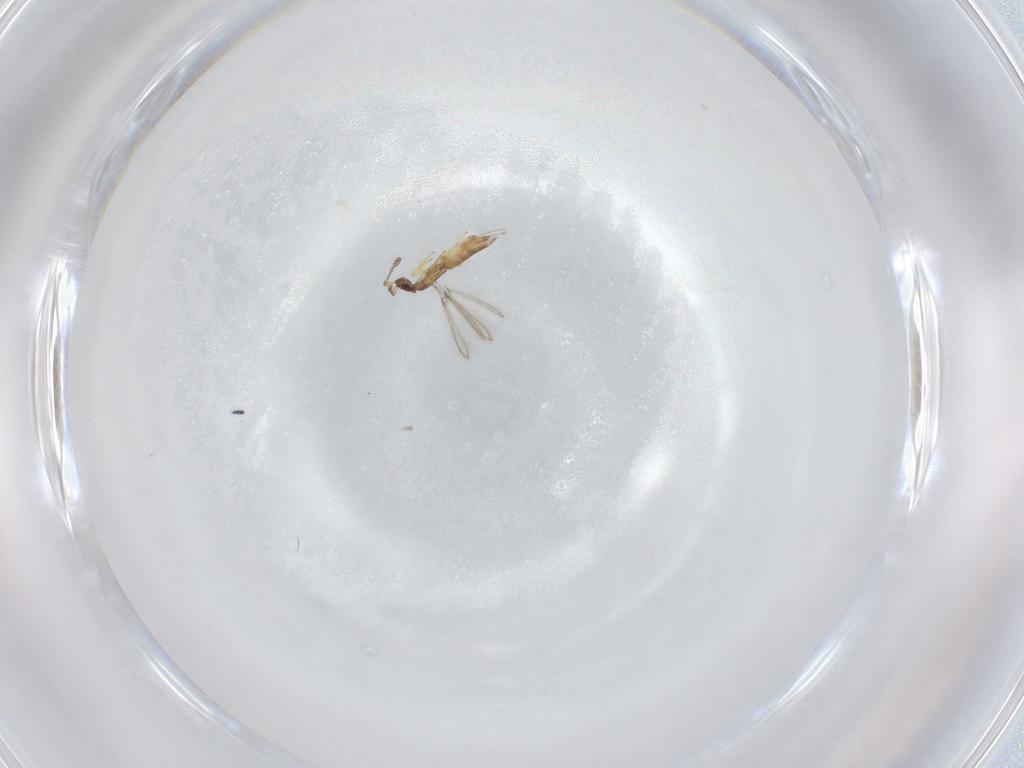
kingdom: Animalia
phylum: Arthropoda
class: Insecta
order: Hymenoptera
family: Mymaridae
